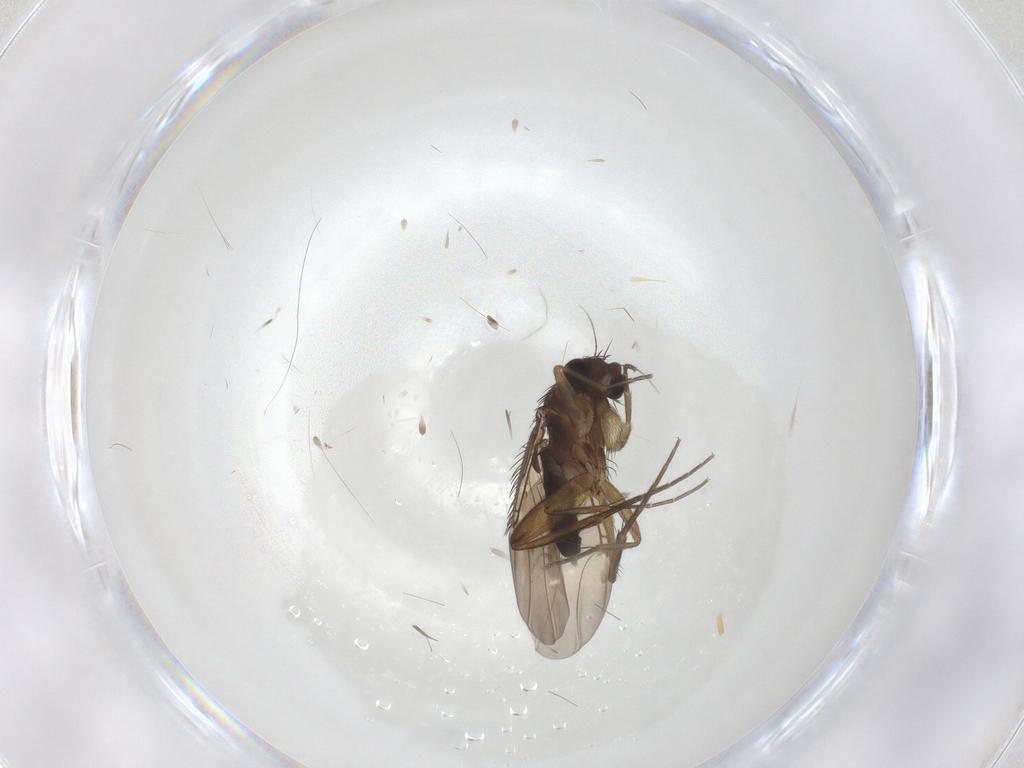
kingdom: Animalia
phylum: Arthropoda
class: Insecta
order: Diptera
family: Phoridae
